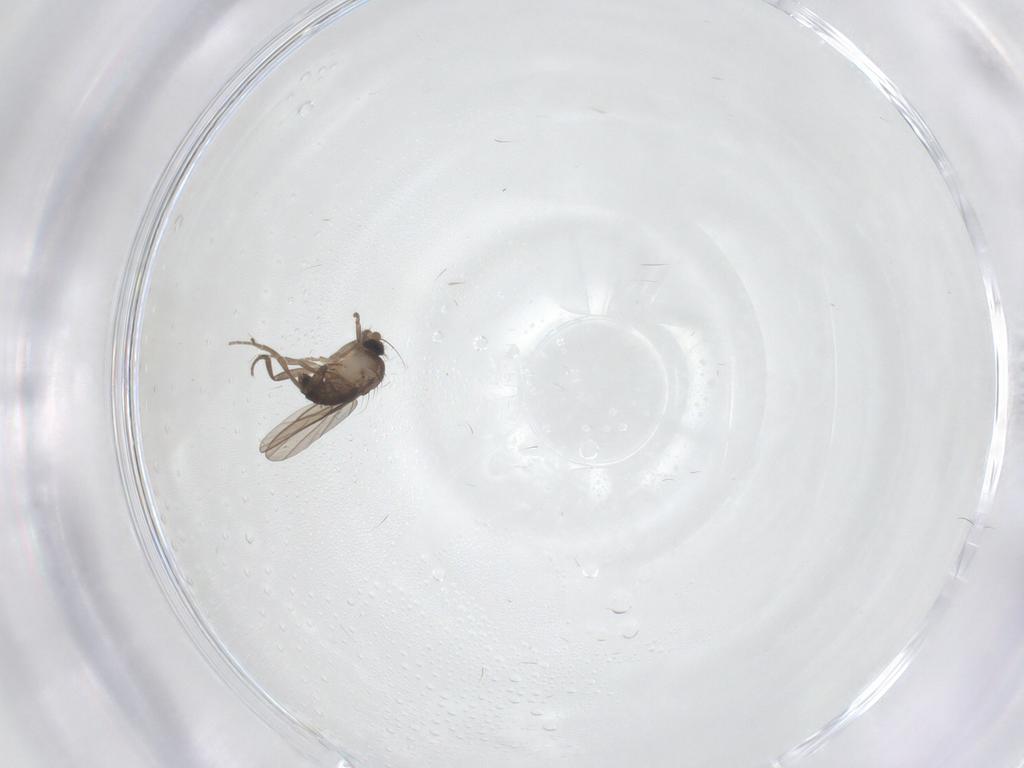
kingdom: Animalia
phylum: Arthropoda
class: Insecta
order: Diptera
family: Phoridae
